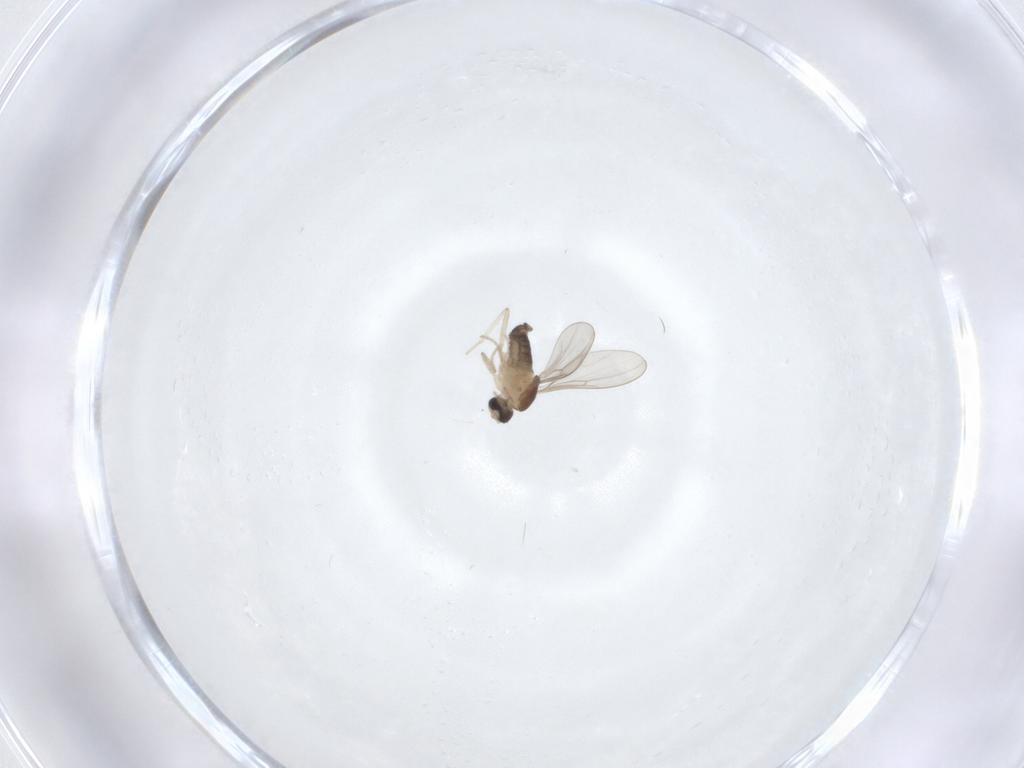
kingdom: Animalia
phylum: Arthropoda
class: Insecta
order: Diptera
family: Cecidomyiidae
